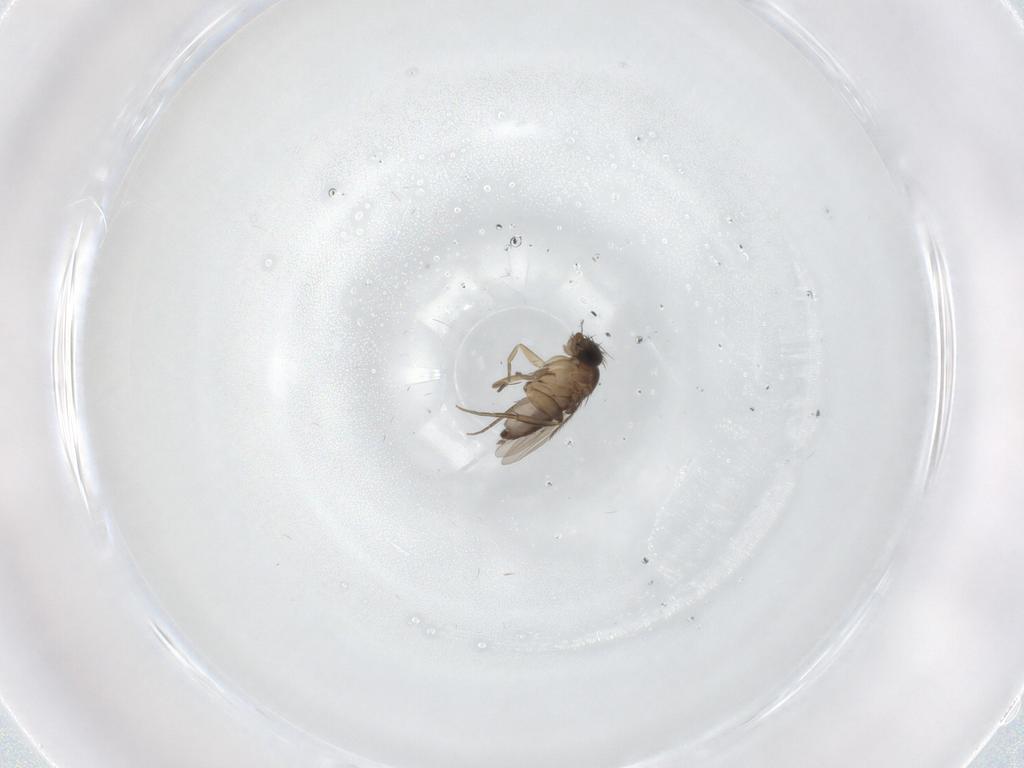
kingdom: Animalia
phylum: Arthropoda
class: Insecta
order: Diptera
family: Phoridae
